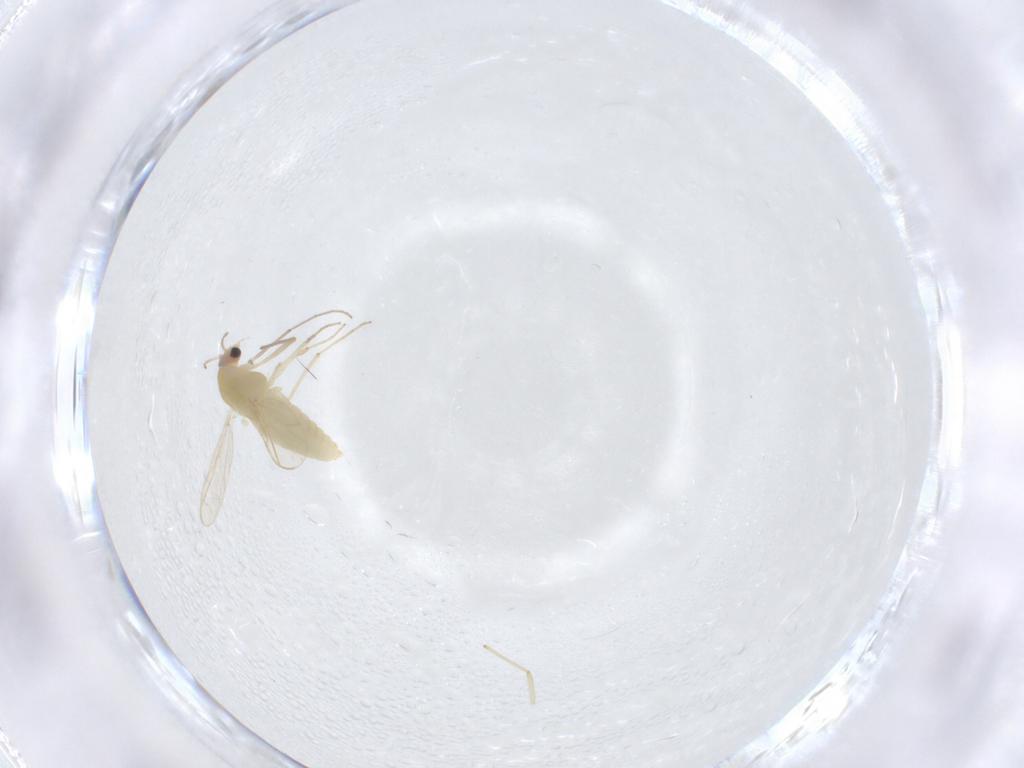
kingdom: Animalia
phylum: Arthropoda
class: Insecta
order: Diptera
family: Chironomidae
